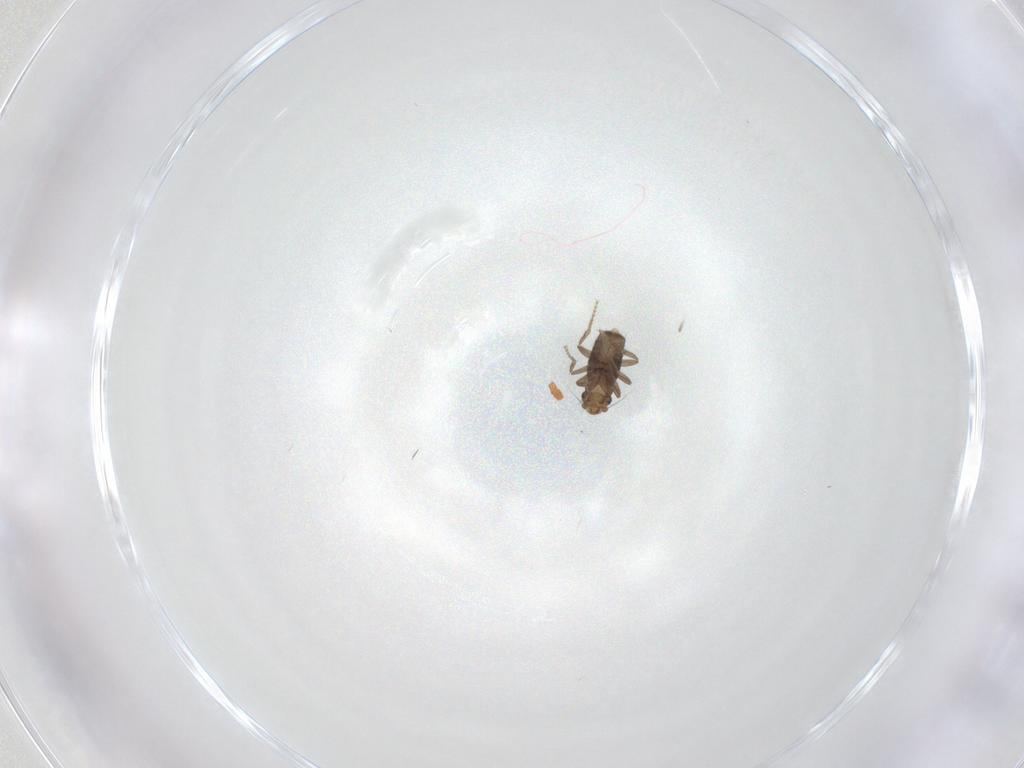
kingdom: Animalia
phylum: Arthropoda
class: Insecta
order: Diptera
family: Phoridae
